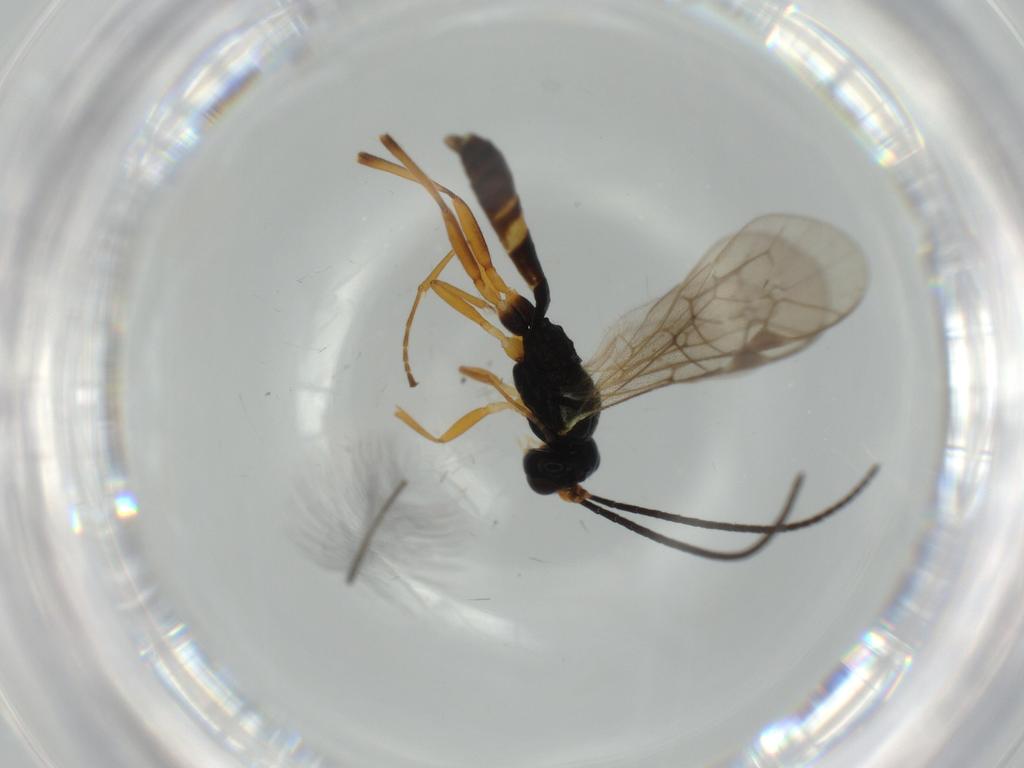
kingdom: Animalia
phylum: Arthropoda
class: Insecta
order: Hymenoptera
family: Ichneumonidae
